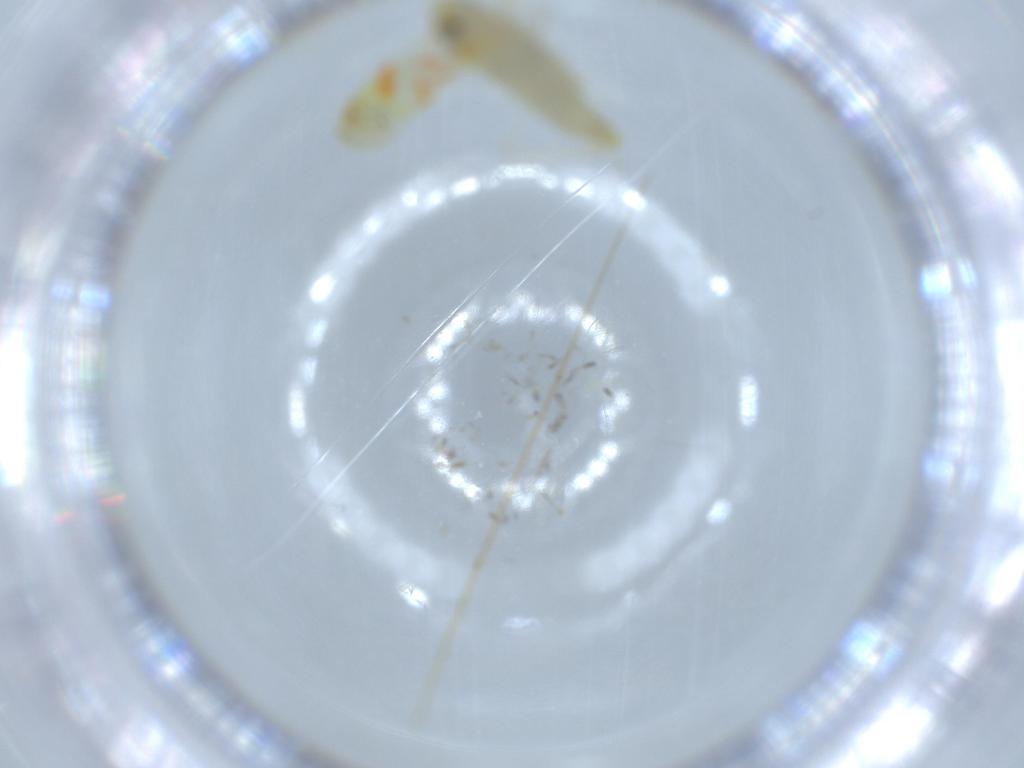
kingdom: Animalia
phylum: Arthropoda
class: Insecta
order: Hemiptera
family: Cicadellidae
